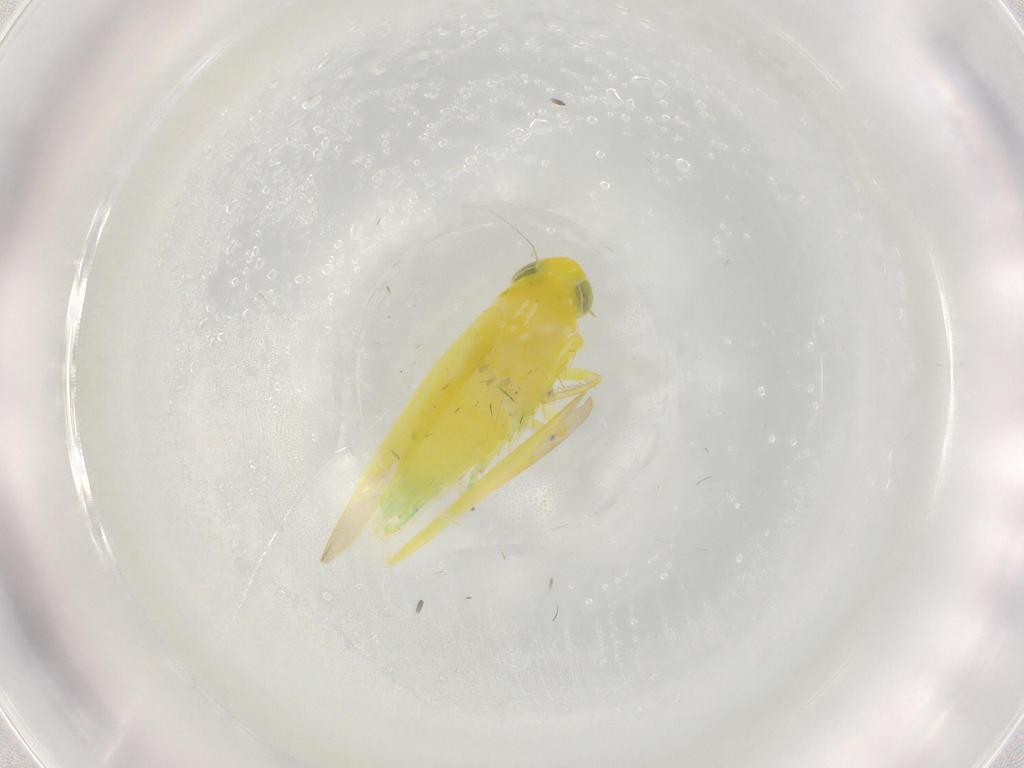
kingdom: Animalia
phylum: Arthropoda
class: Insecta
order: Hemiptera
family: Cicadellidae
